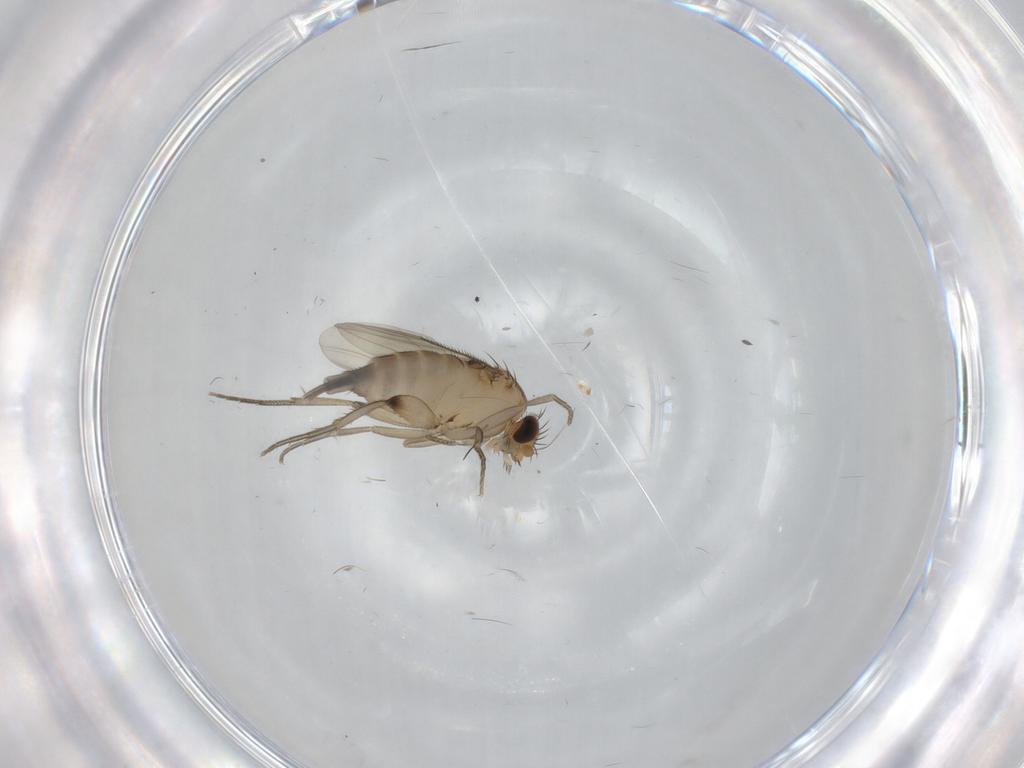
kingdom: Animalia
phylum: Arthropoda
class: Insecta
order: Diptera
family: Phoridae
